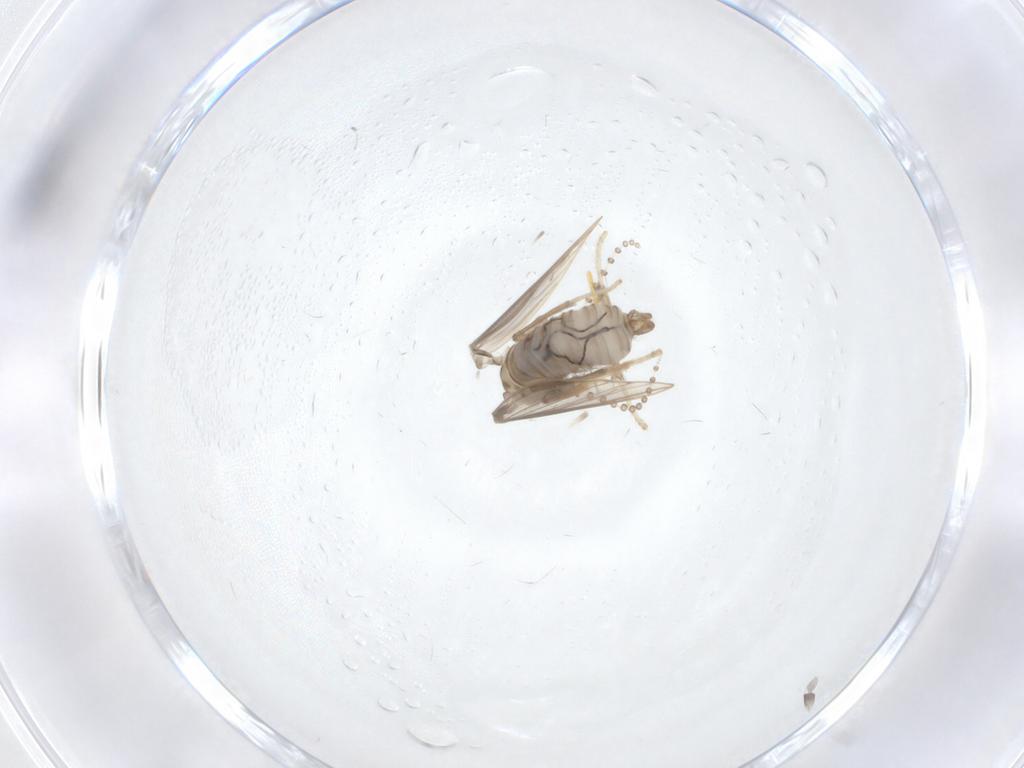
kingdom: Animalia
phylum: Arthropoda
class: Insecta
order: Diptera
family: Psychodidae
